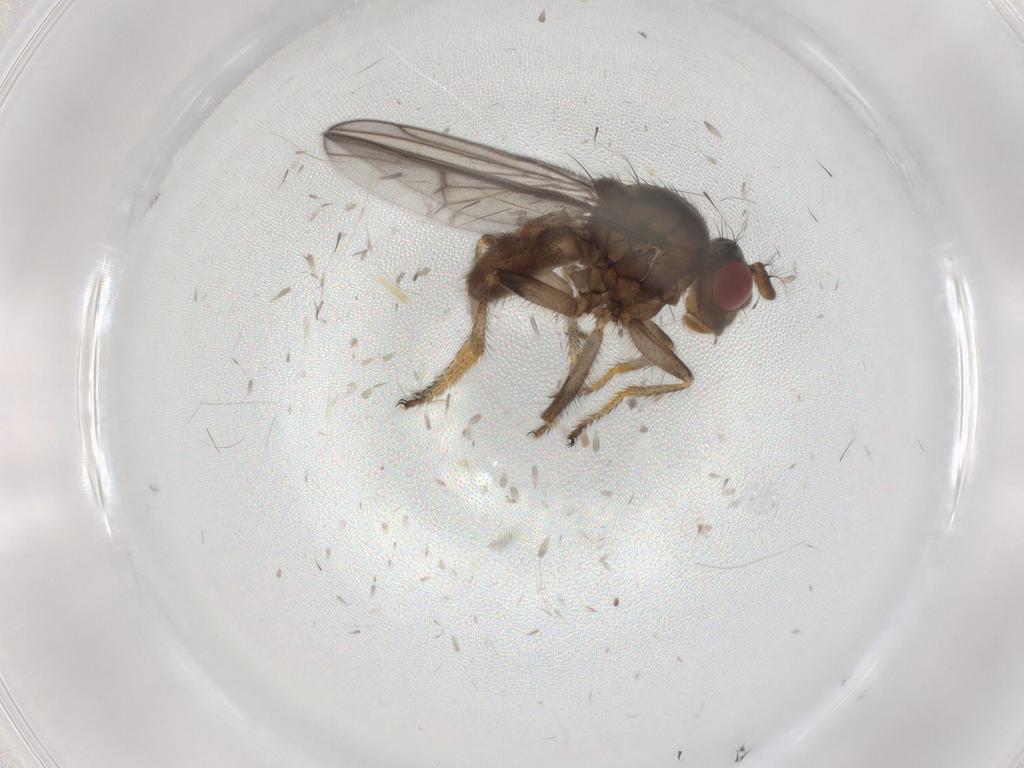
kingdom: Animalia
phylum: Arthropoda
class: Insecta
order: Diptera
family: Ephydridae
